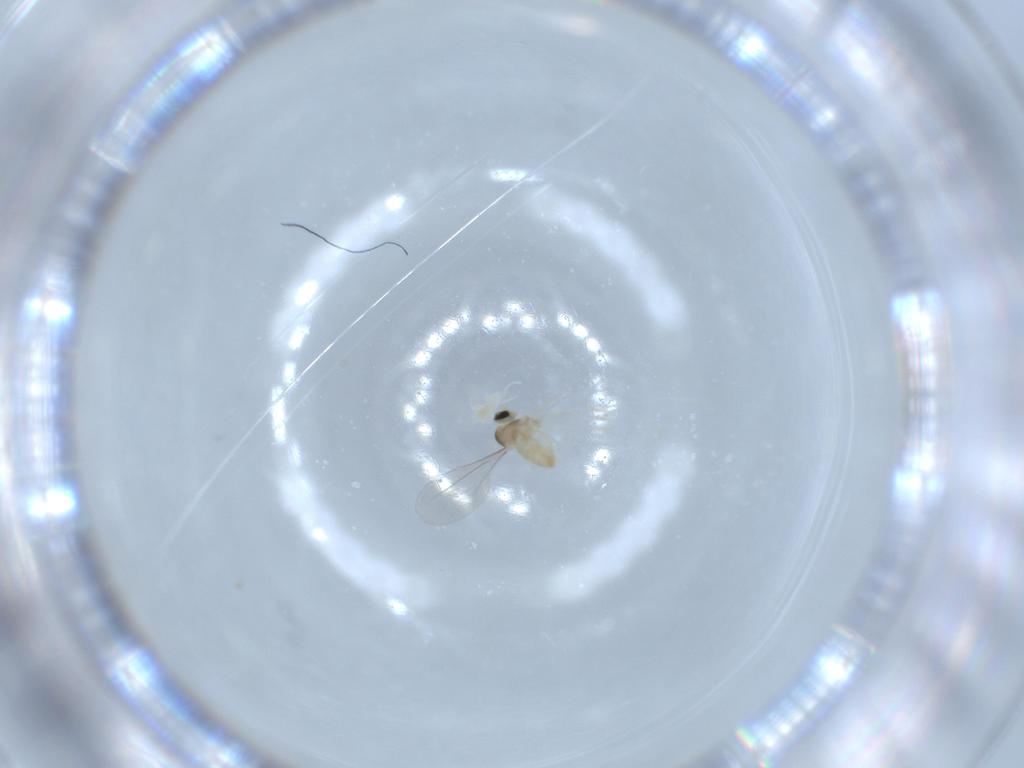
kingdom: Animalia
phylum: Arthropoda
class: Insecta
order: Diptera
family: Cecidomyiidae
